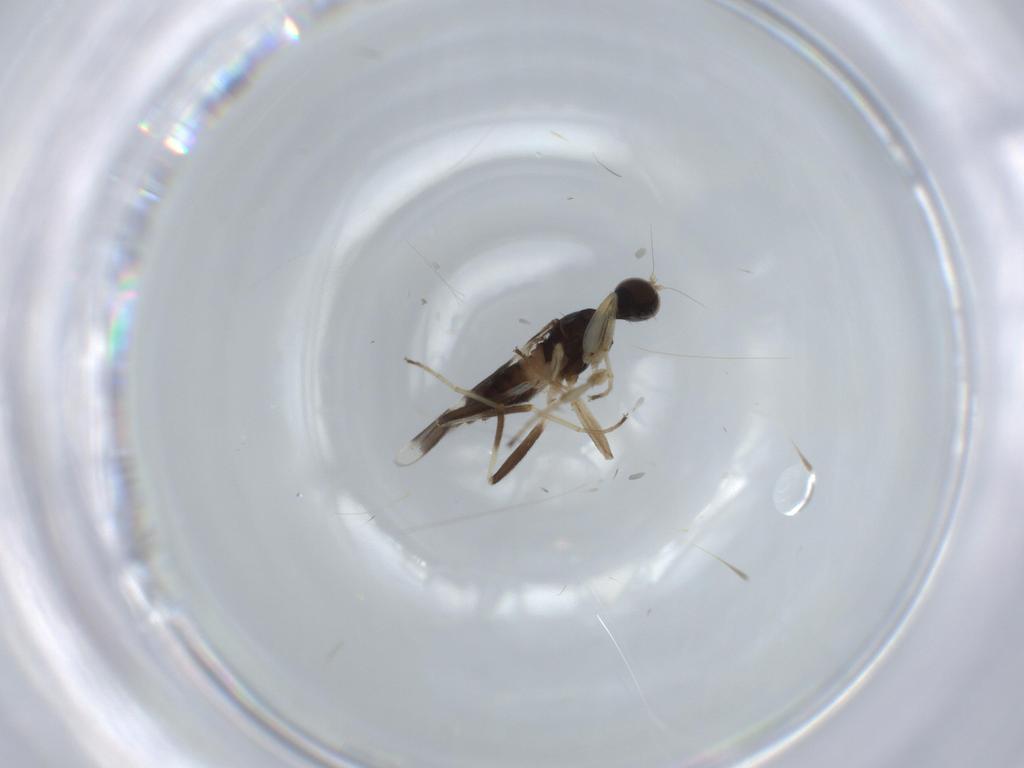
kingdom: Animalia
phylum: Arthropoda
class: Insecta
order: Diptera
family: Hybotidae
